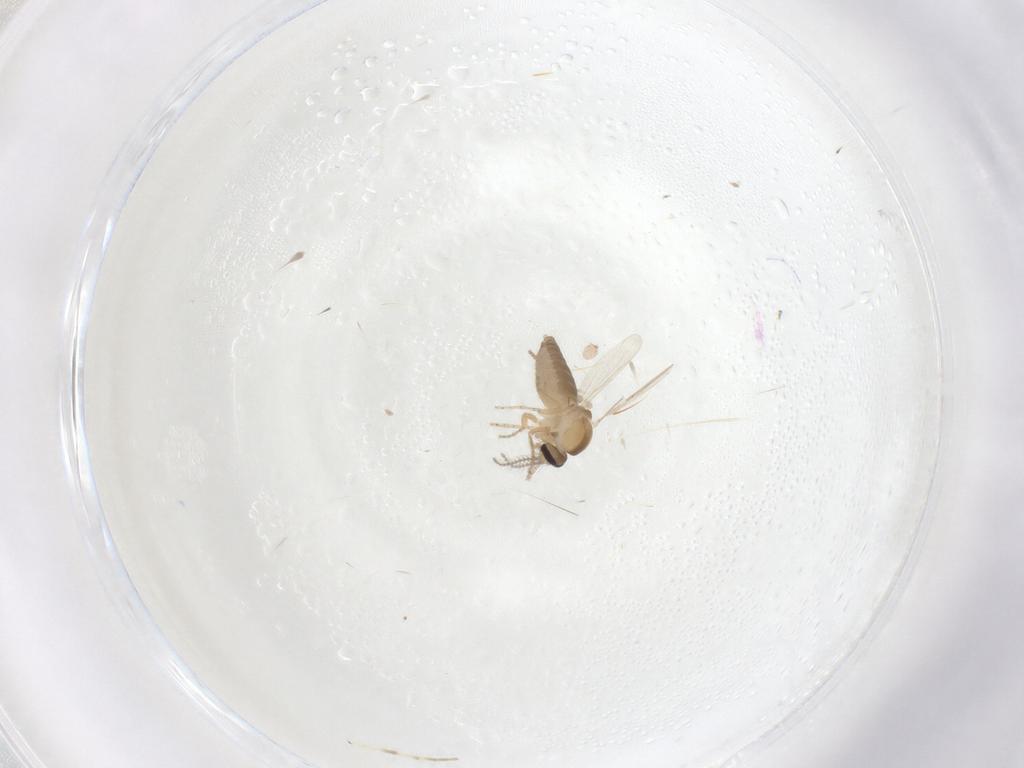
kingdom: Animalia
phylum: Arthropoda
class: Insecta
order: Diptera
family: Ceratopogonidae
